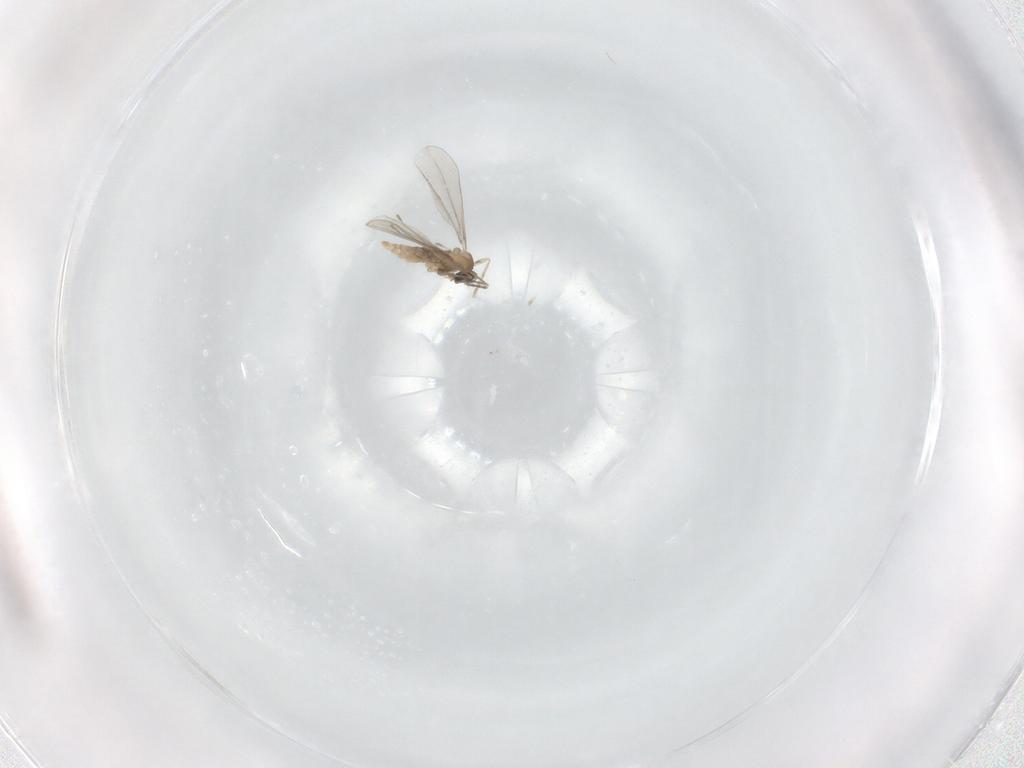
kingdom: Animalia
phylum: Arthropoda
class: Insecta
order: Diptera
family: Cecidomyiidae
